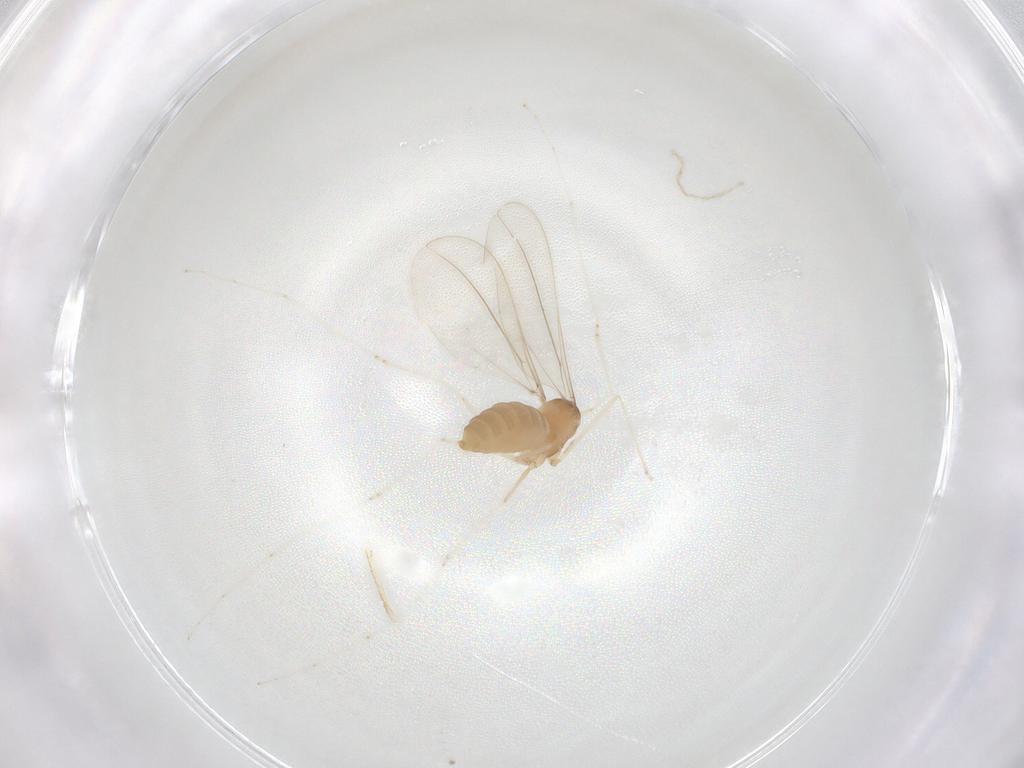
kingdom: Animalia
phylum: Arthropoda
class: Insecta
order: Diptera
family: Cecidomyiidae
